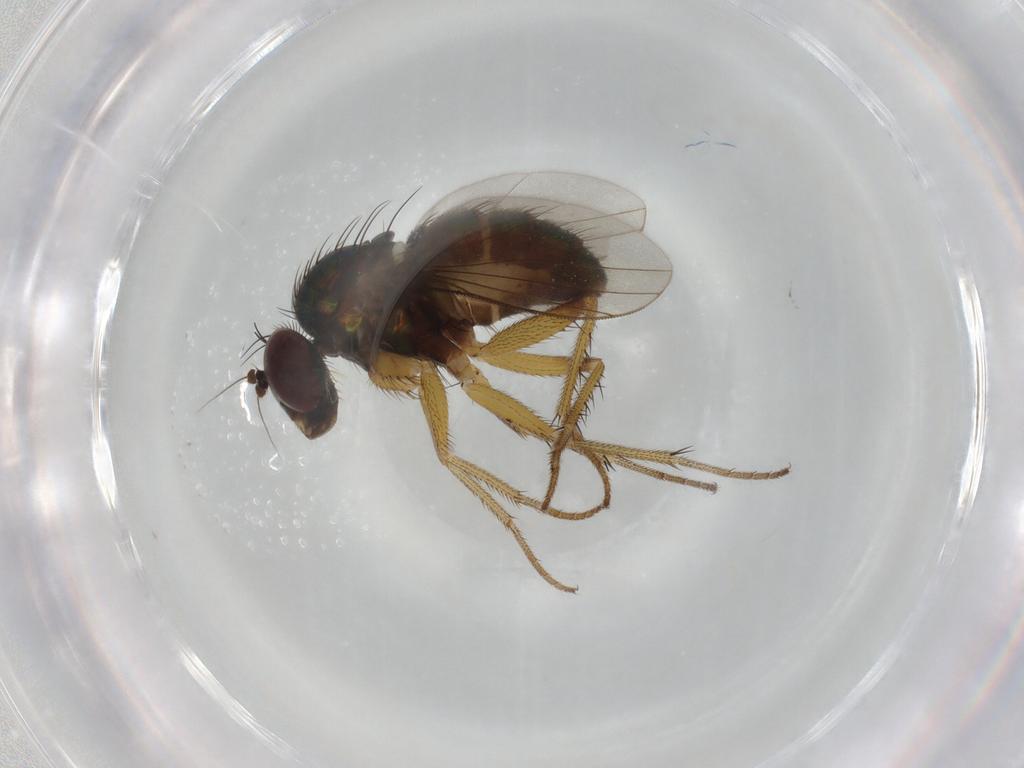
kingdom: Animalia
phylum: Arthropoda
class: Insecta
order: Diptera
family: Dolichopodidae
